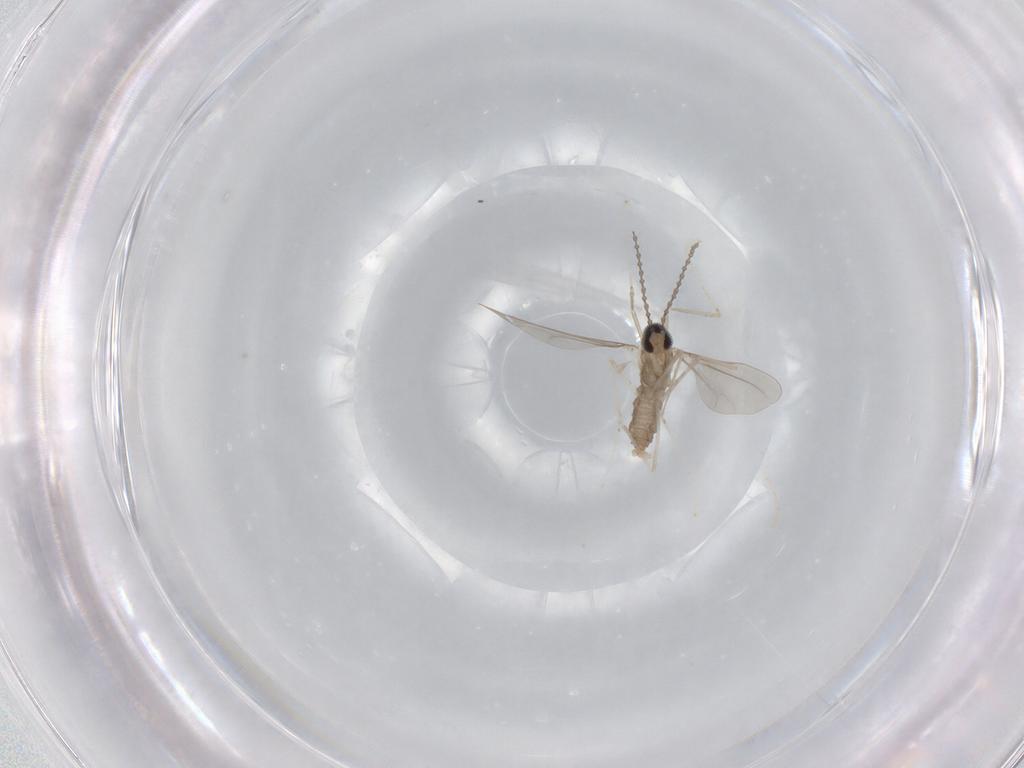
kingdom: Animalia
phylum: Arthropoda
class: Insecta
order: Diptera
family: Cecidomyiidae
